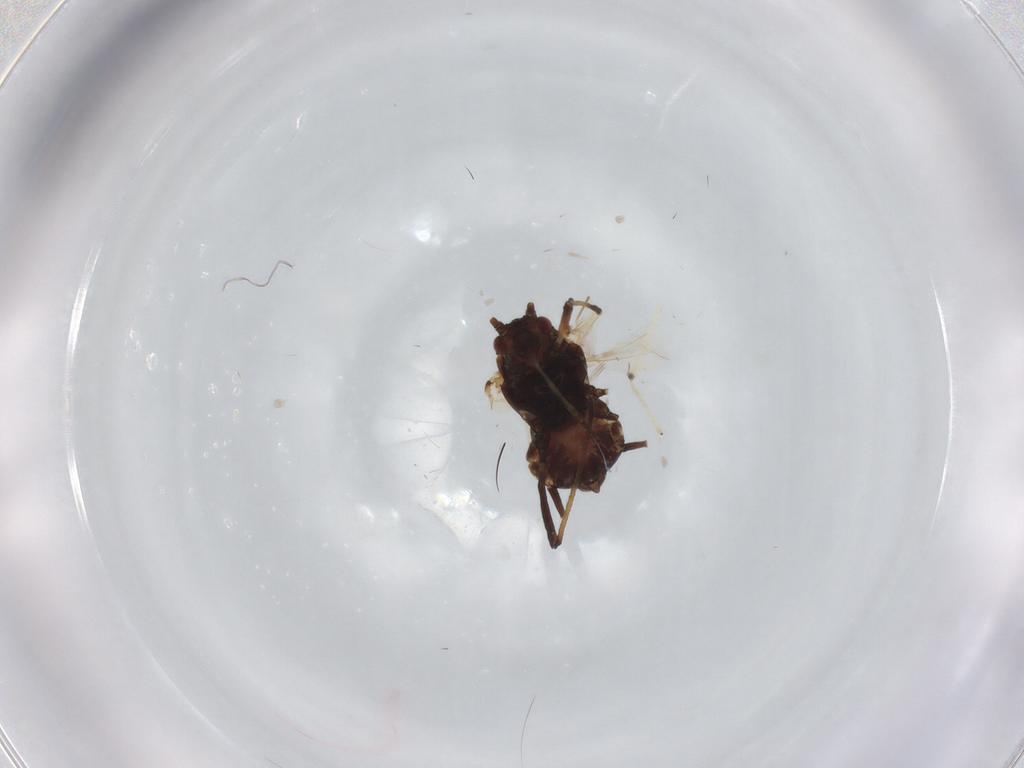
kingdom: Animalia
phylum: Arthropoda
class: Insecta
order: Hemiptera
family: Aphididae
